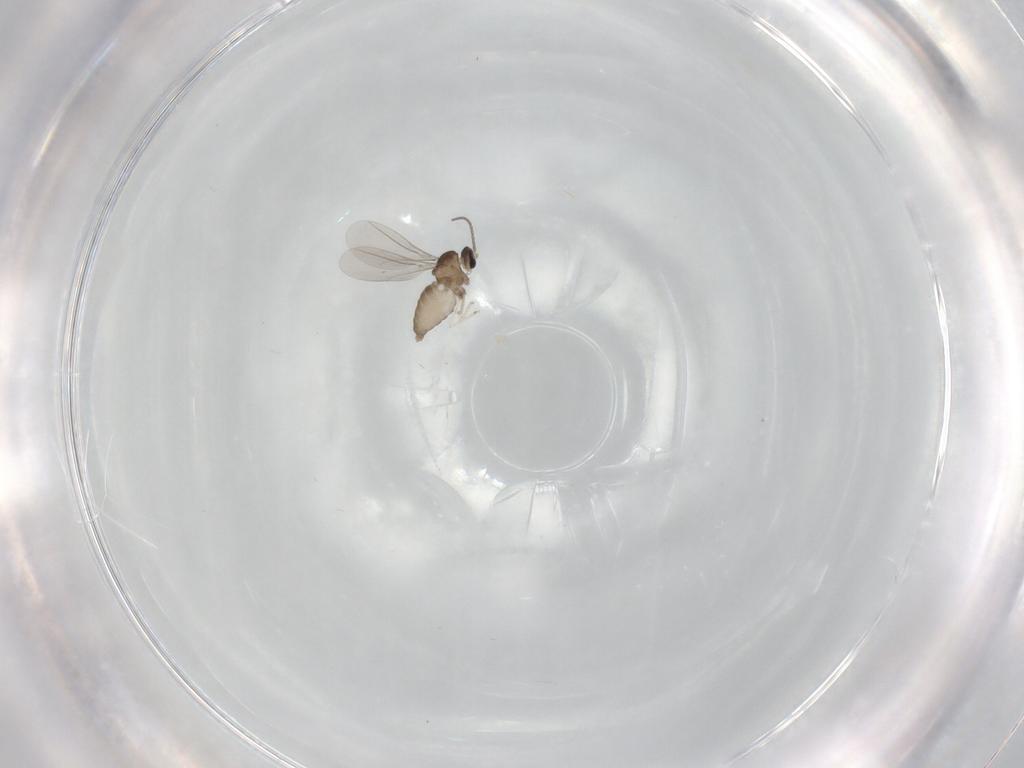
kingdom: Animalia
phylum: Arthropoda
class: Insecta
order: Diptera
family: Cecidomyiidae
